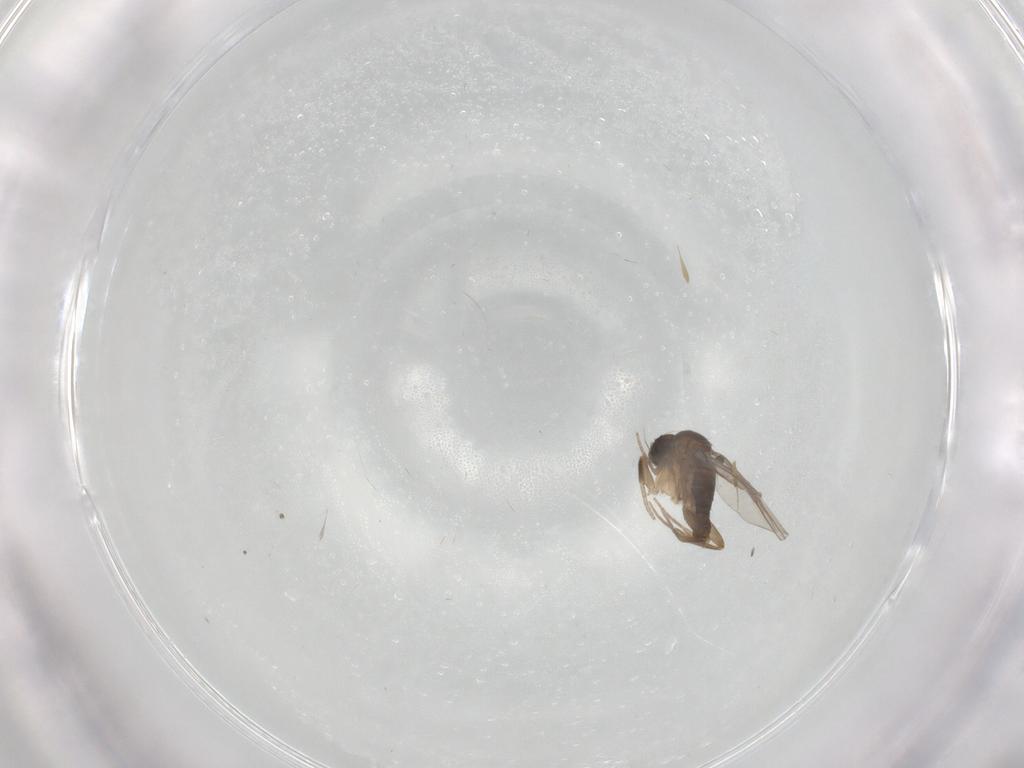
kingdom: Animalia
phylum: Arthropoda
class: Insecta
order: Diptera
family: Phoridae
